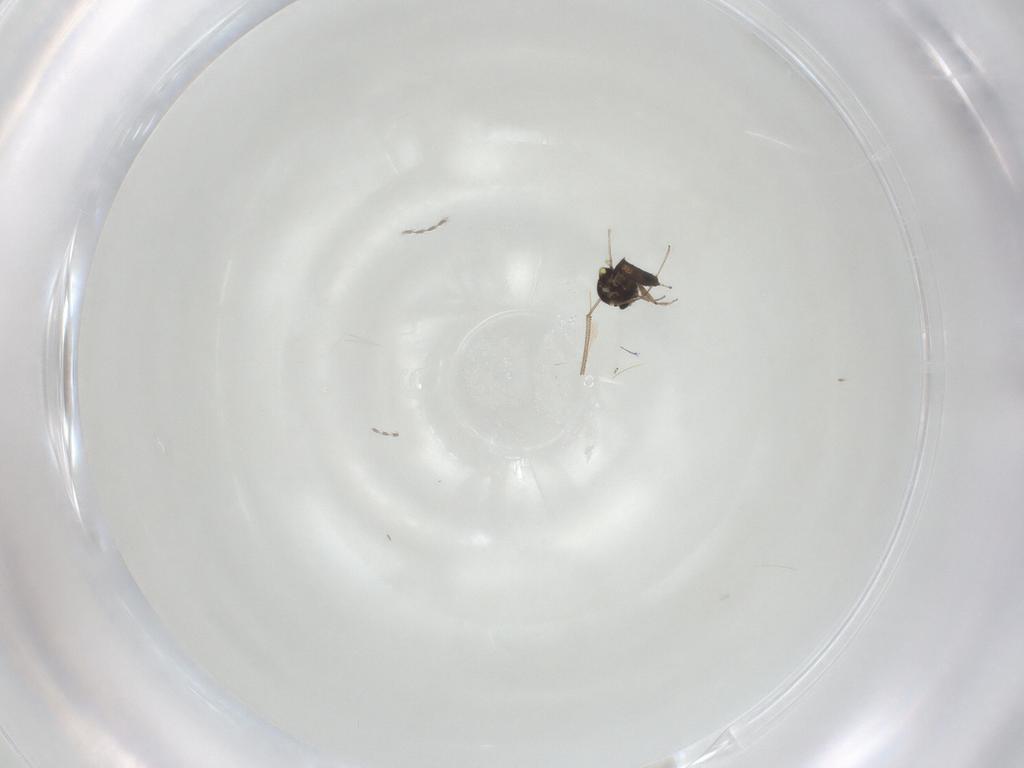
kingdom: Animalia
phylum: Arthropoda
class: Insecta
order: Diptera
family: Ceratopogonidae
